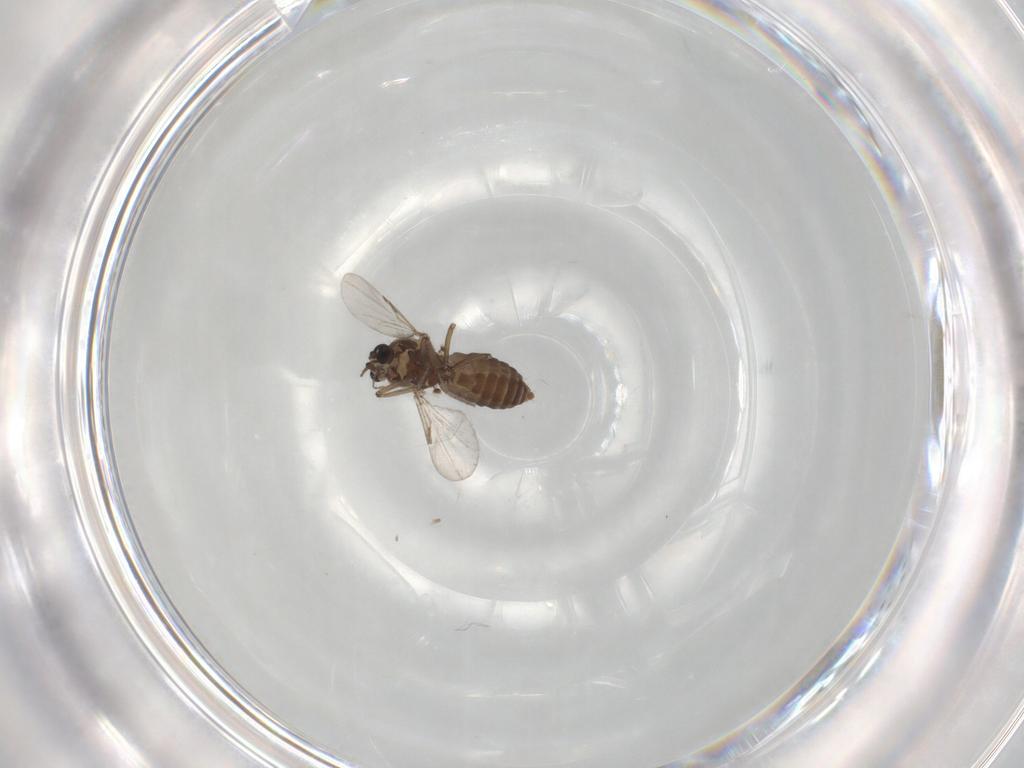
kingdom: Animalia
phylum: Arthropoda
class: Insecta
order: Diptera
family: Ceratopogonidae
